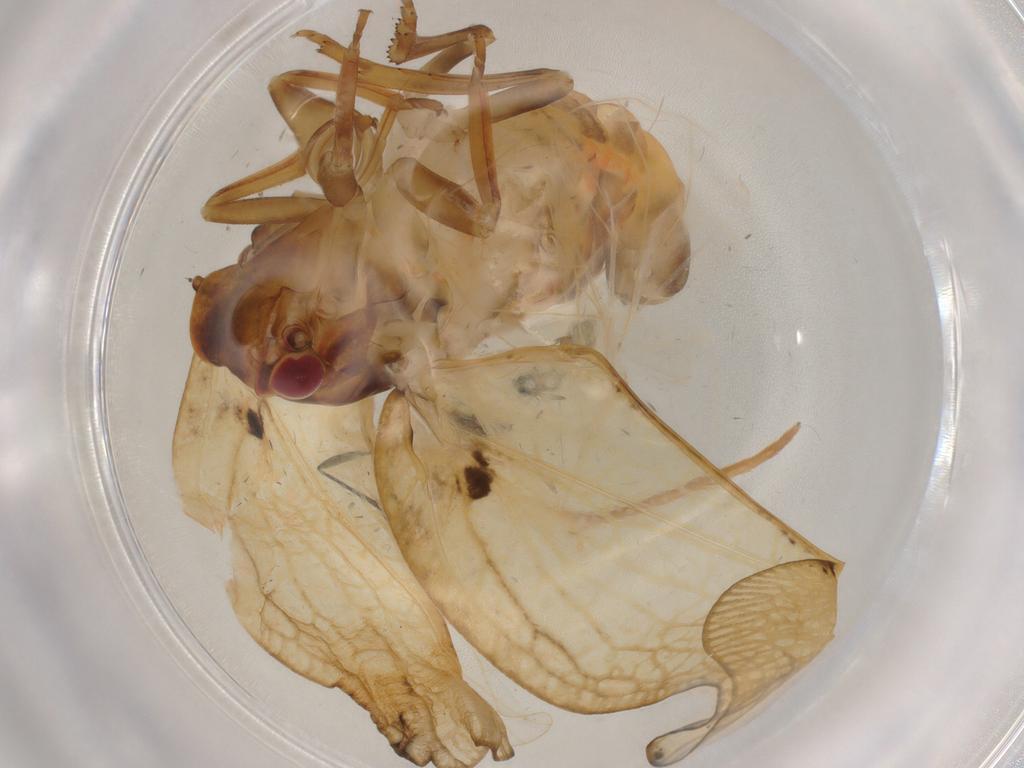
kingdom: Animalia
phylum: Arthropoda
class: Insecta
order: Hemiptera
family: Flatidae
